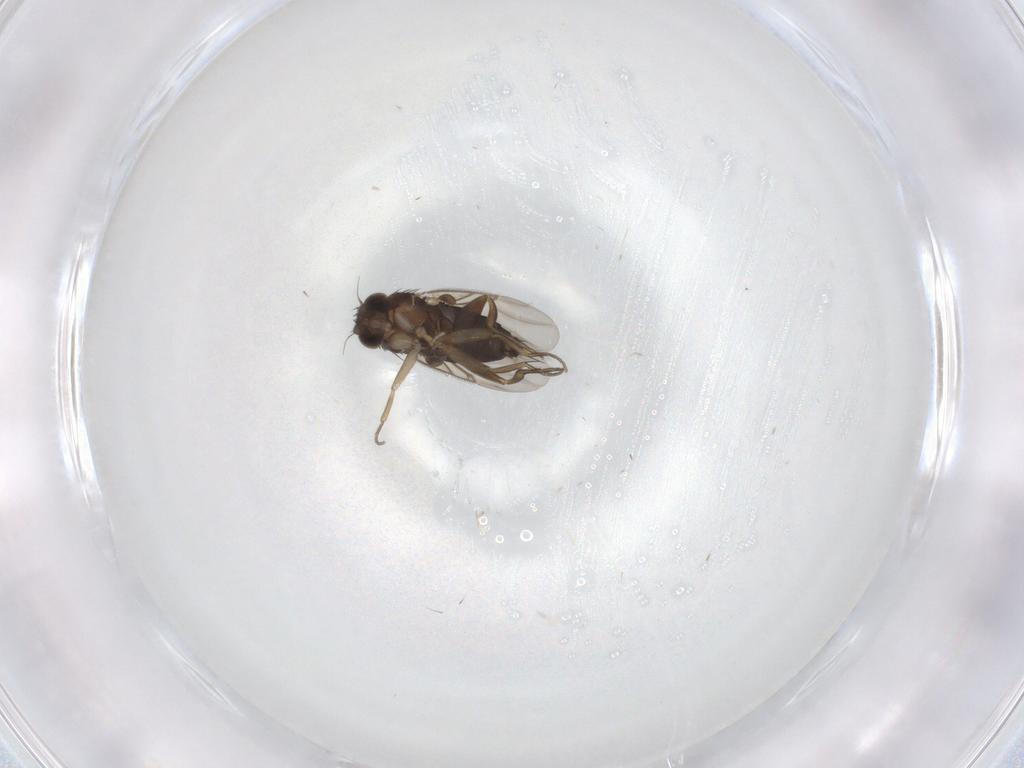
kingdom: Animalia
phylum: Arthropoda
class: Insecta
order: Diptera
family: Phoridae
